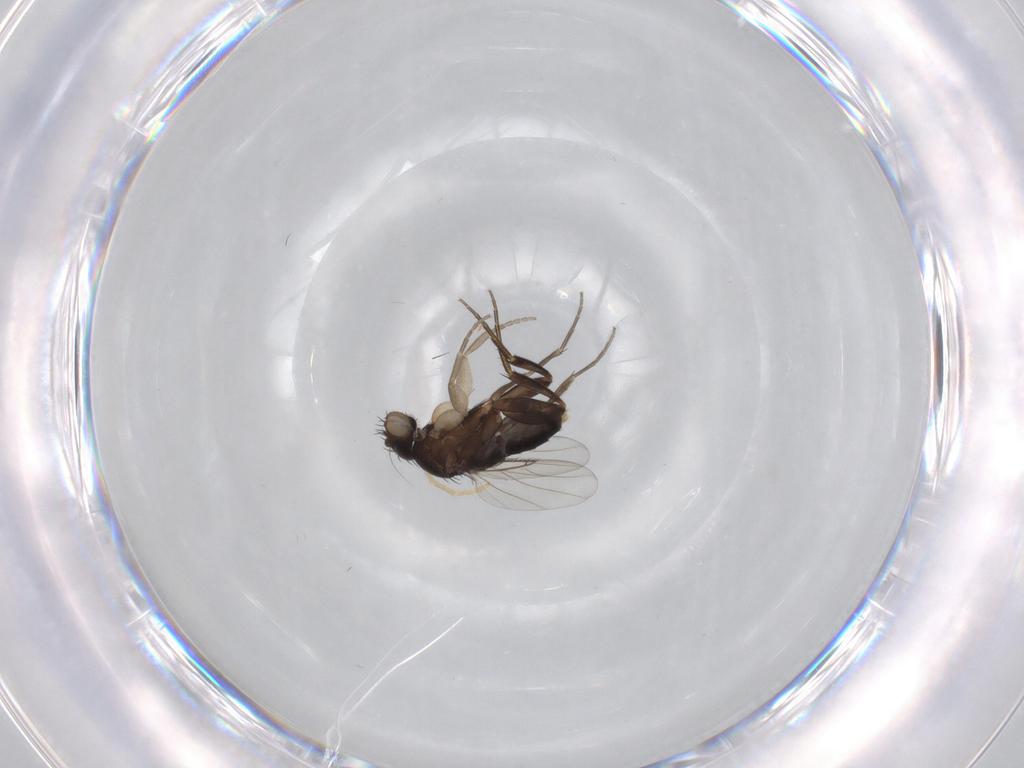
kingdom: Animalia
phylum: Arthropoda
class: Insecta
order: Diptera
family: Phoridae
